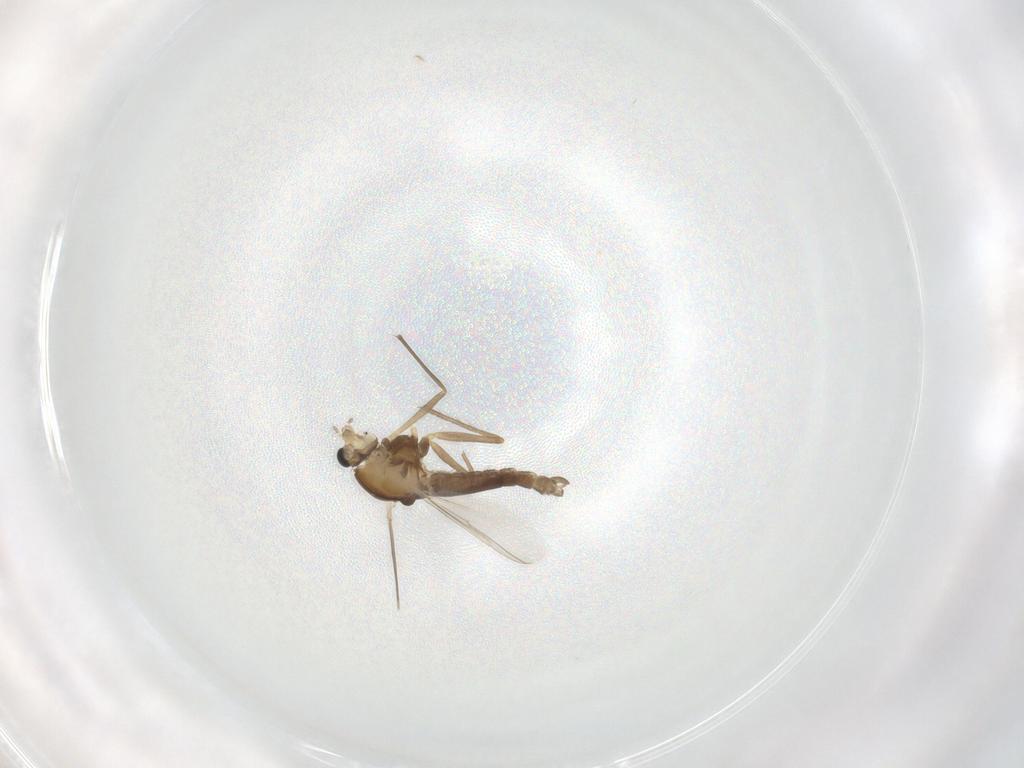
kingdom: Animalia
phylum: Arthropoda
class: Insecta
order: Diptera
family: Chironomidae
